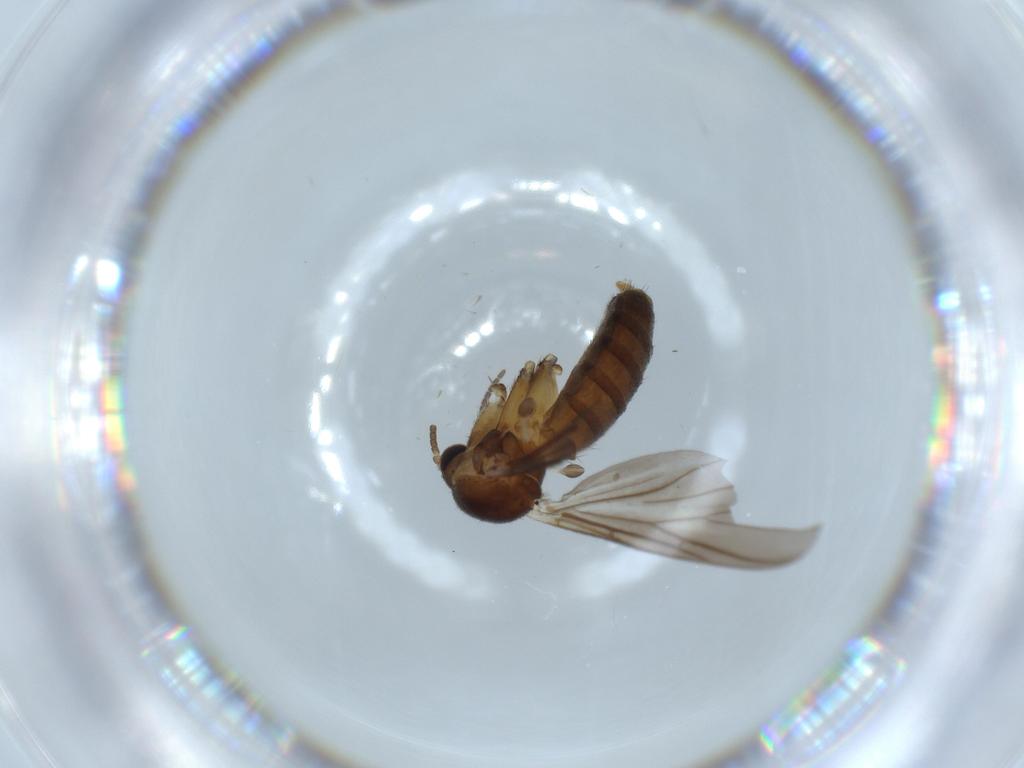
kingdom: Animalia
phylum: Arthropoda
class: Insecta
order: Diptera
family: Mycetophilidae
